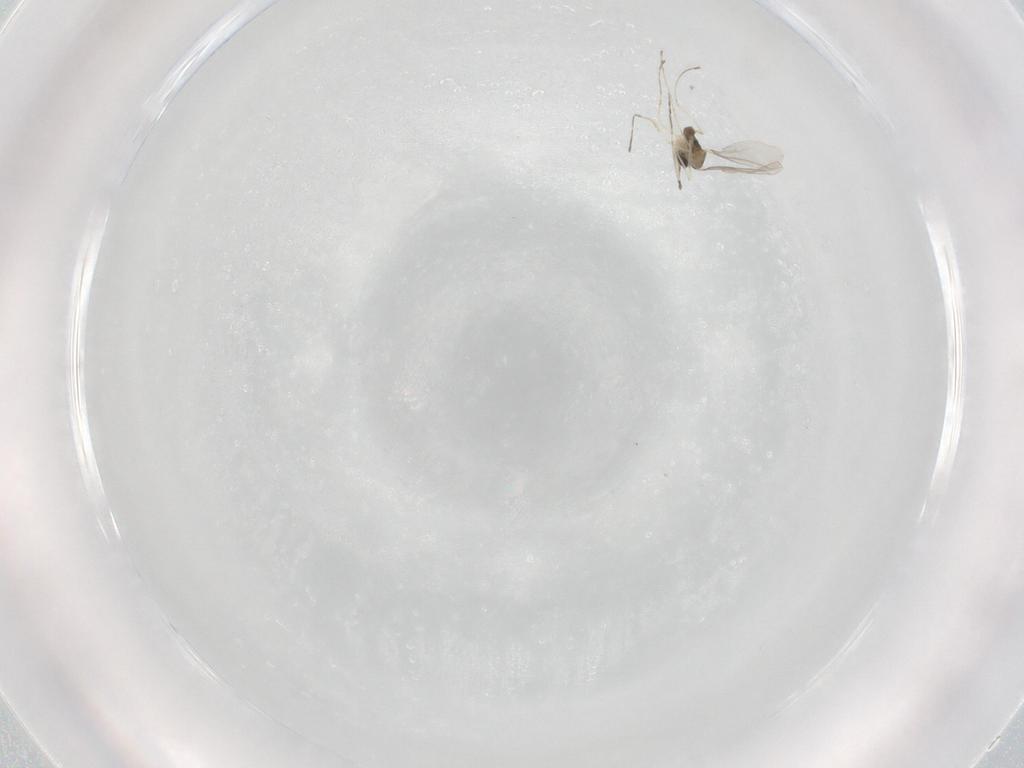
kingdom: Animalia
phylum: Arthropoda
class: Insecta
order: Diptera
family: Cecidomyiidae
